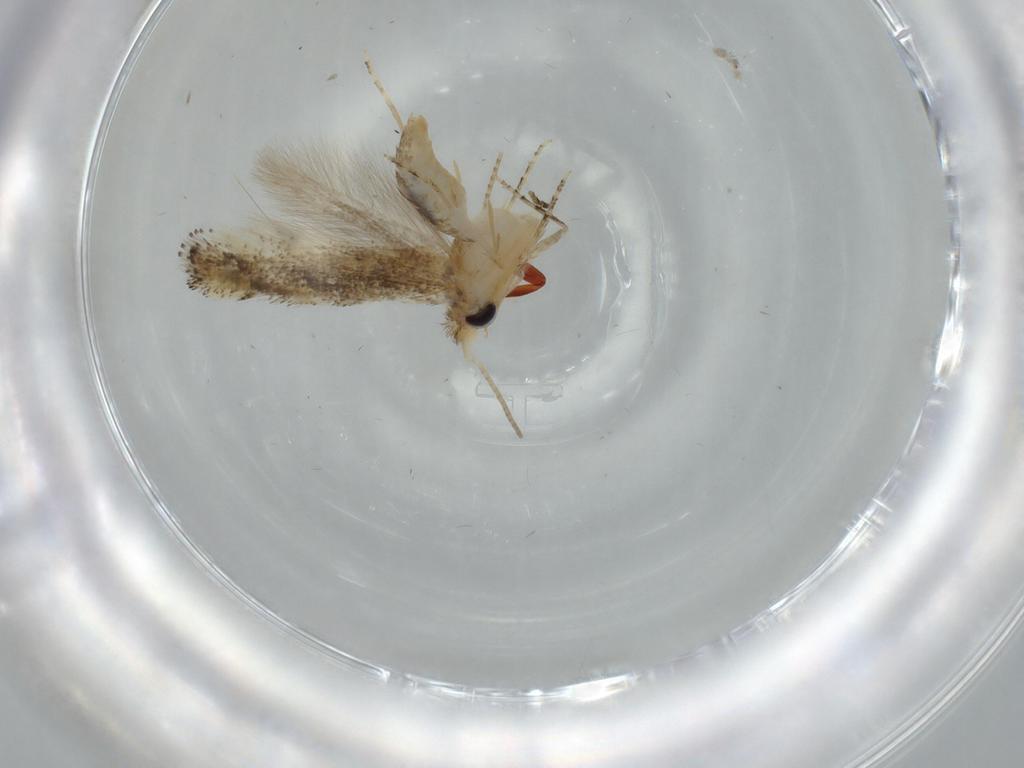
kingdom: Animalia
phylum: Arthropoda
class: Insecta
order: Lepidoptera
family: Bucculatricidae
